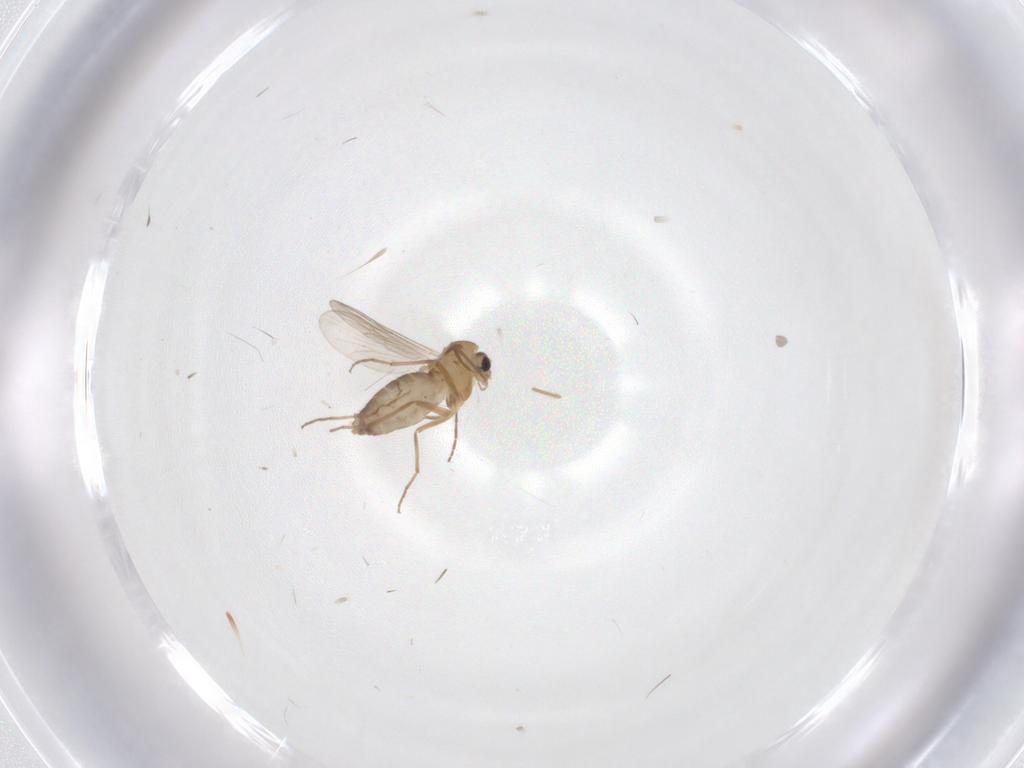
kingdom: Animalia
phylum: Arthropoda
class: Insecta
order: Diptera
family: Chironomidae
